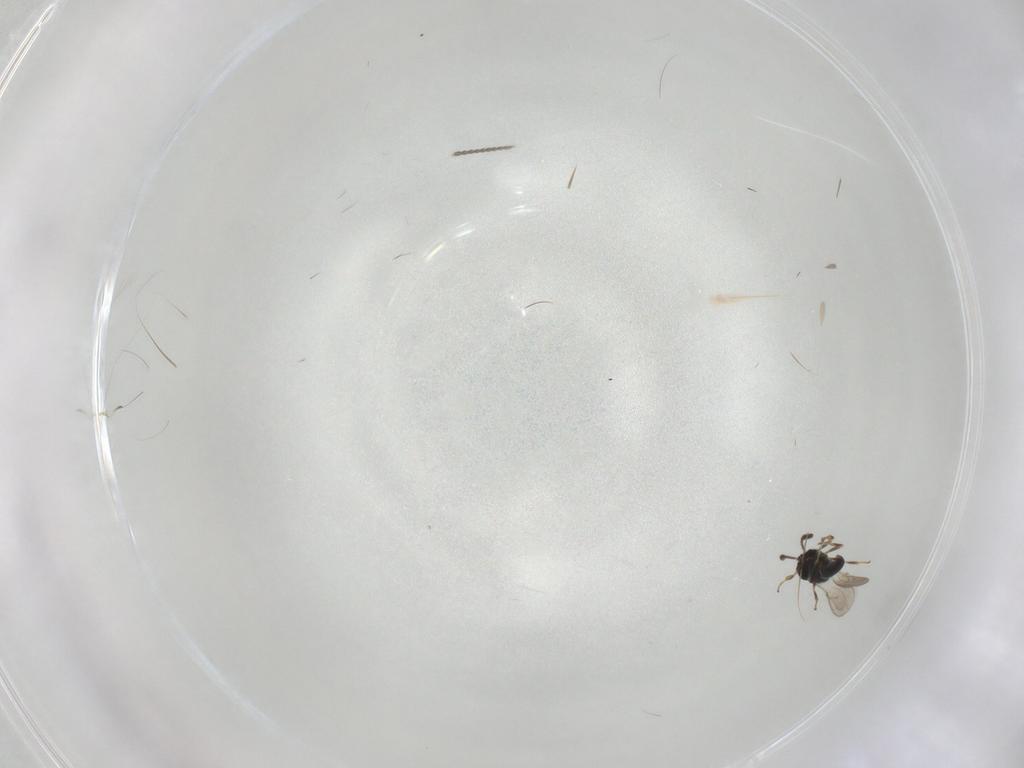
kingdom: Animalia
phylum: Arthropoda
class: Insecta
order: Hymenoptera
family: Scelionidae
